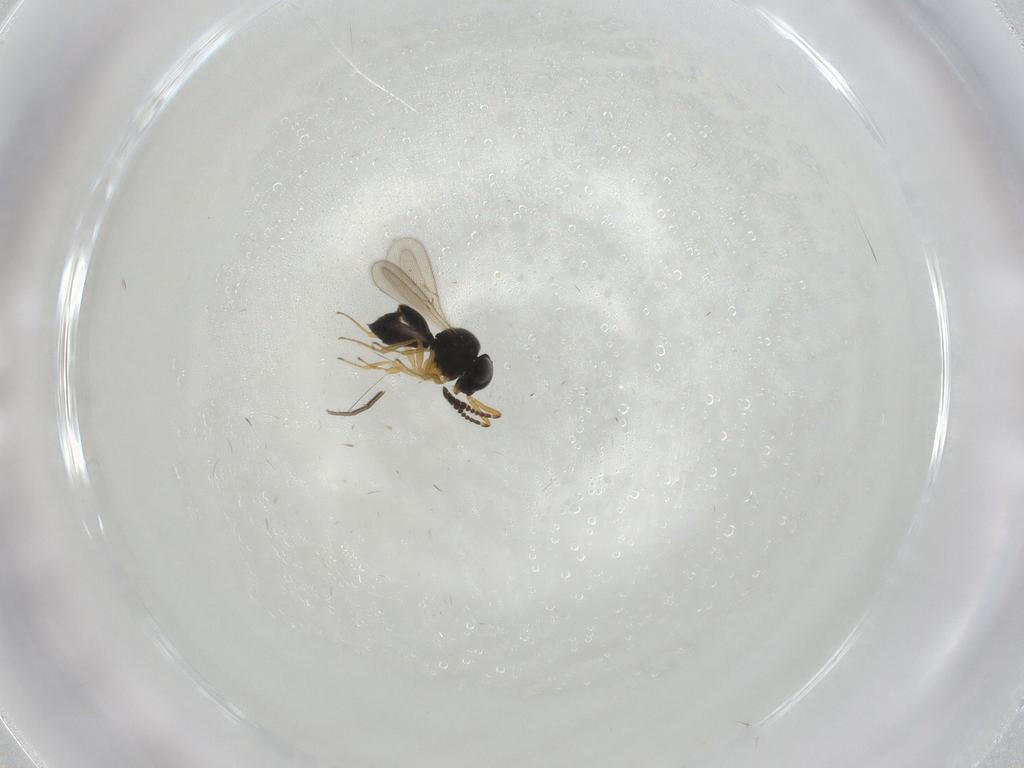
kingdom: Animalia
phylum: Arthropoda
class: Insecta
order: Hymenoptera
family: Scelionidae
